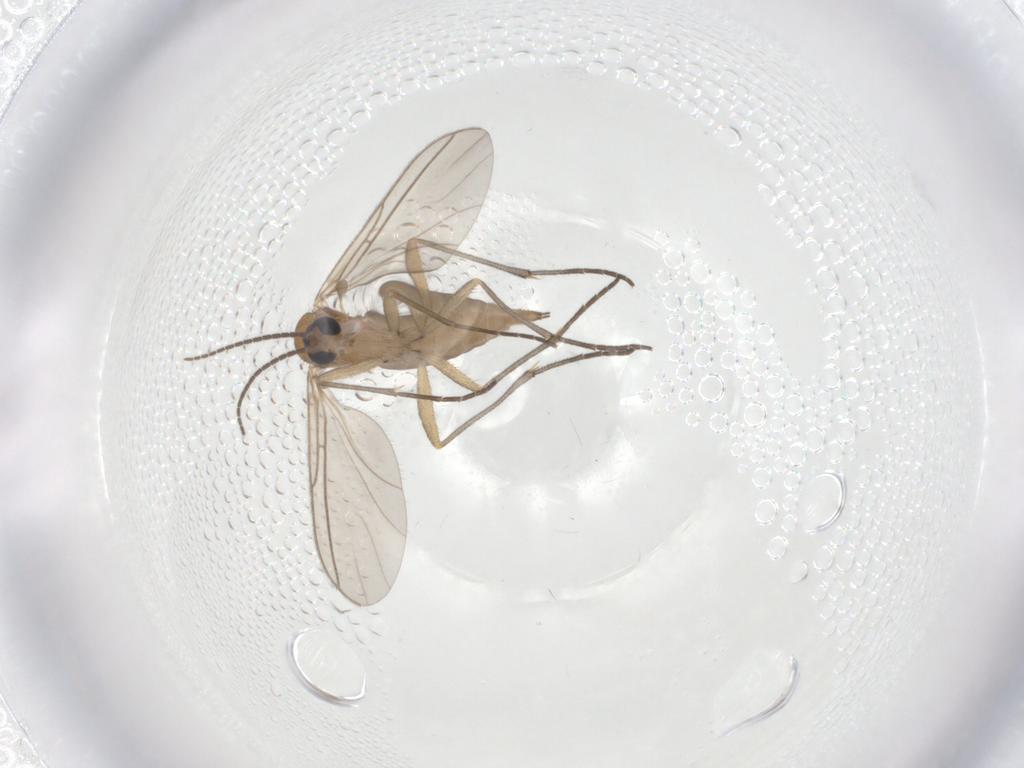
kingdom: Animalia
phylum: Arthropoda
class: Insecta
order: Diptera
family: Sciaridae
